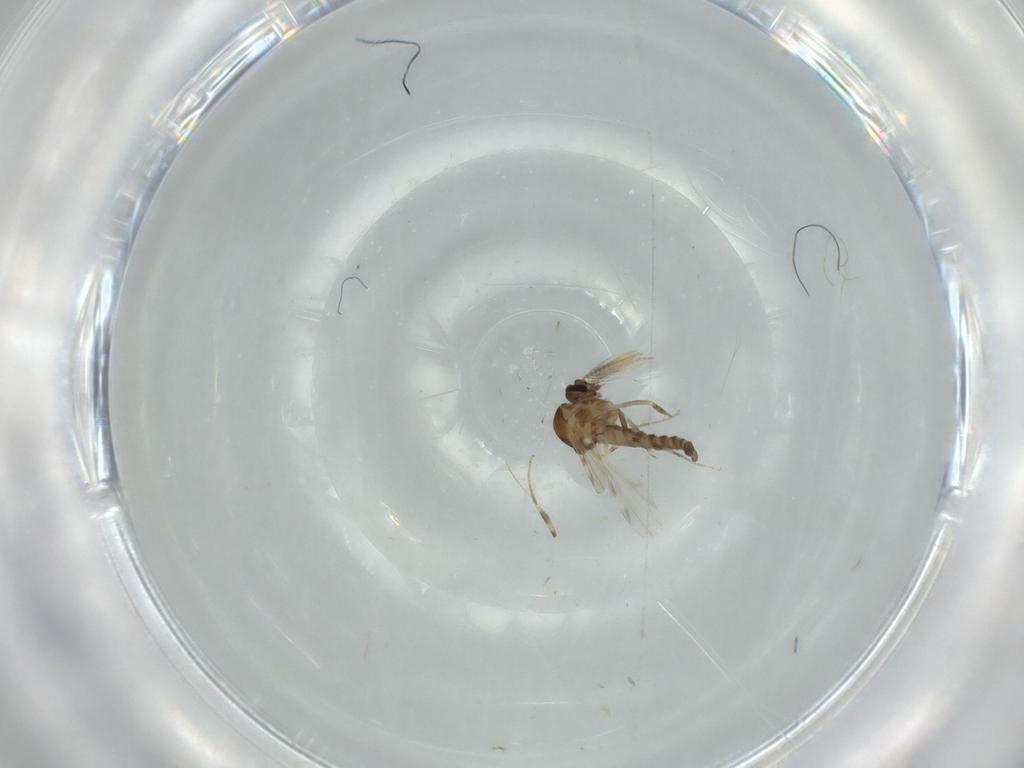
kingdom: Animalia
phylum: Arthropoda
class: Insecta
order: Diptera
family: Ceratopogonidae
